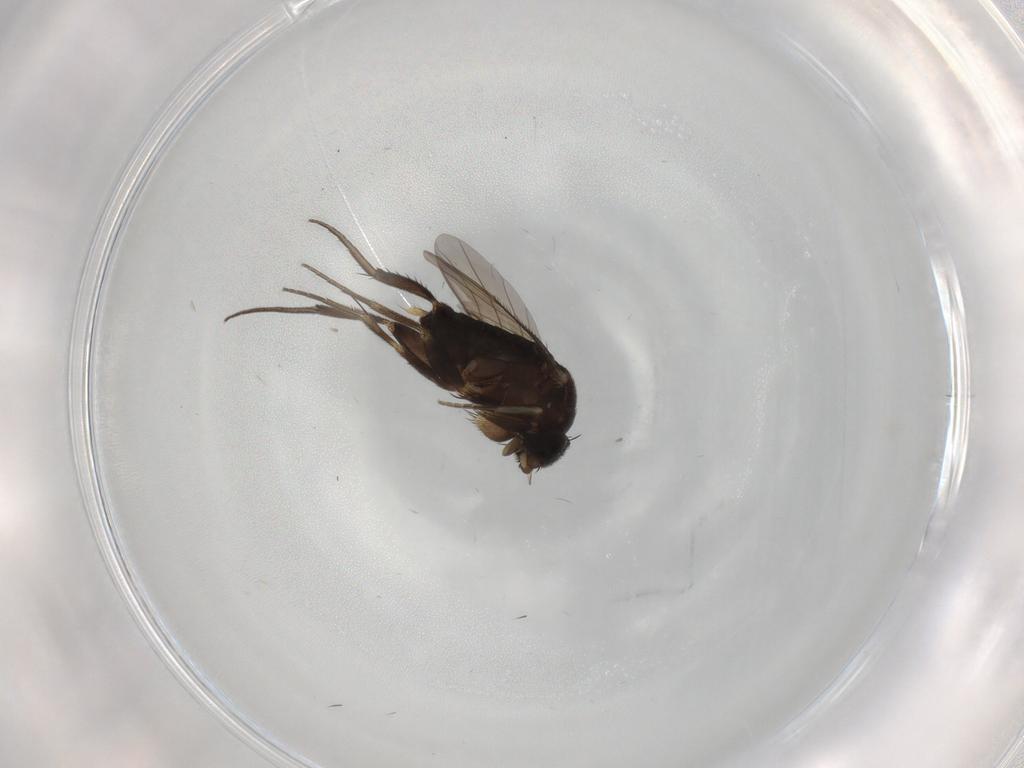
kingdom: Animalia
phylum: Arthropoda
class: Insecta
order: Diptera
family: Phoridae
